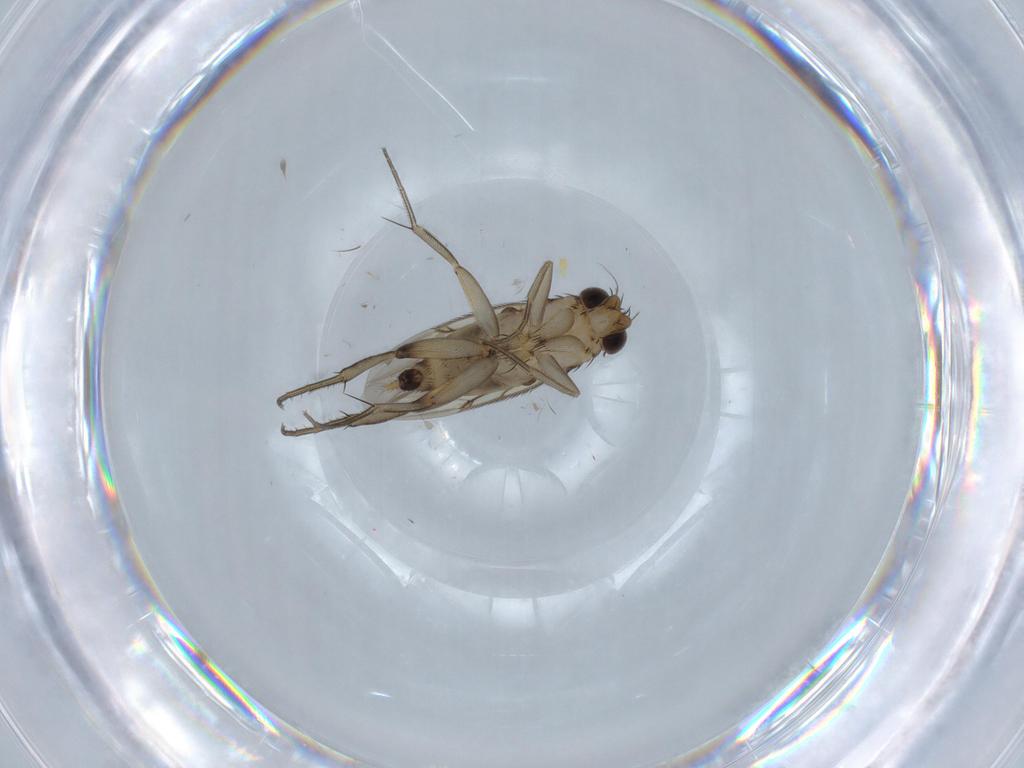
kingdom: Animalia
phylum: Arthropoda
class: Insecta
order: Diptera
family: Phoridae
